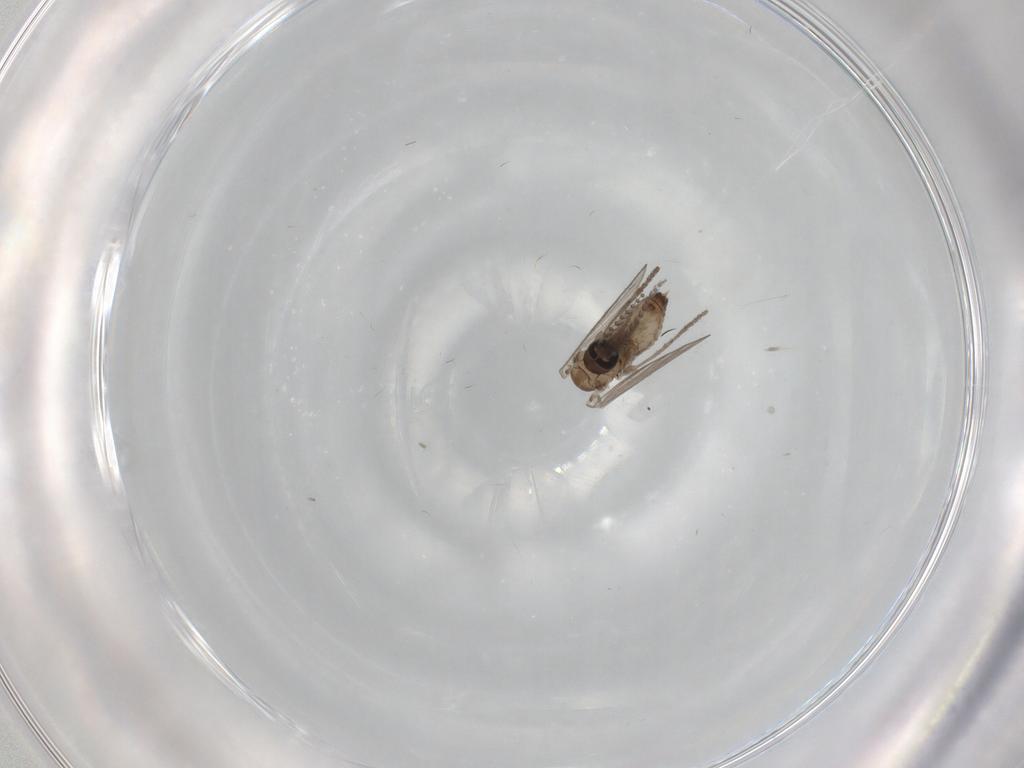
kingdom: Animalia
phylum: Arthropoda
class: Insecta
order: Diptera
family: Psychodidae
